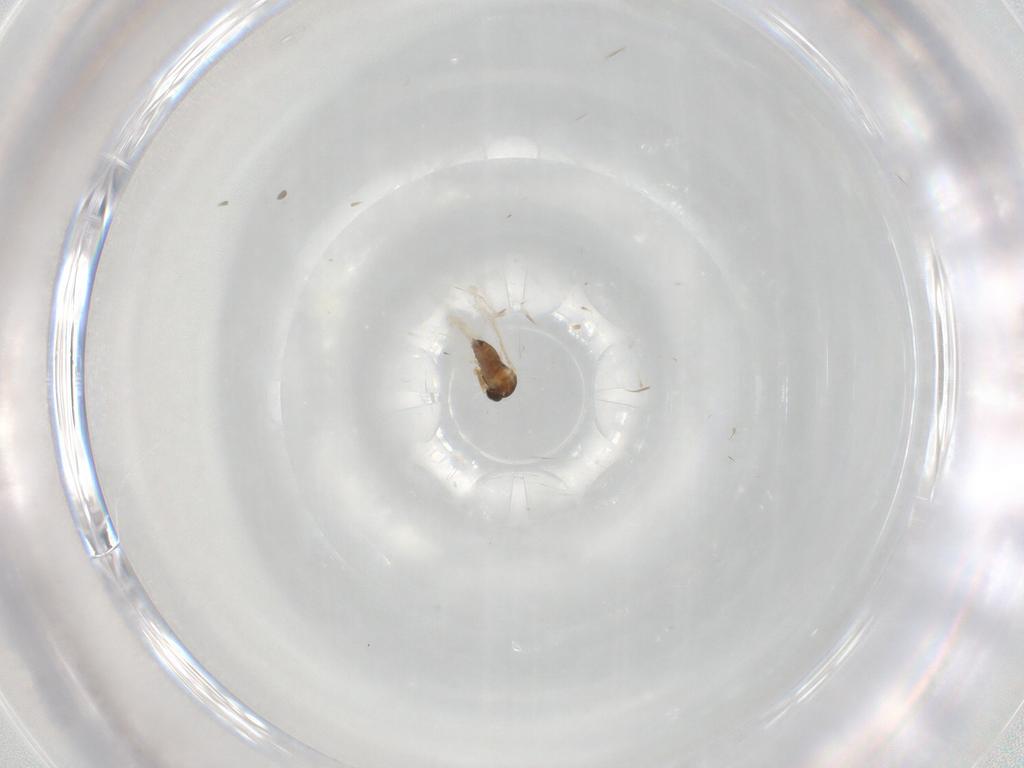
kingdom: Animalia
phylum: Arthropoda
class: Insecta
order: Diptera
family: Cecidomyiidae
